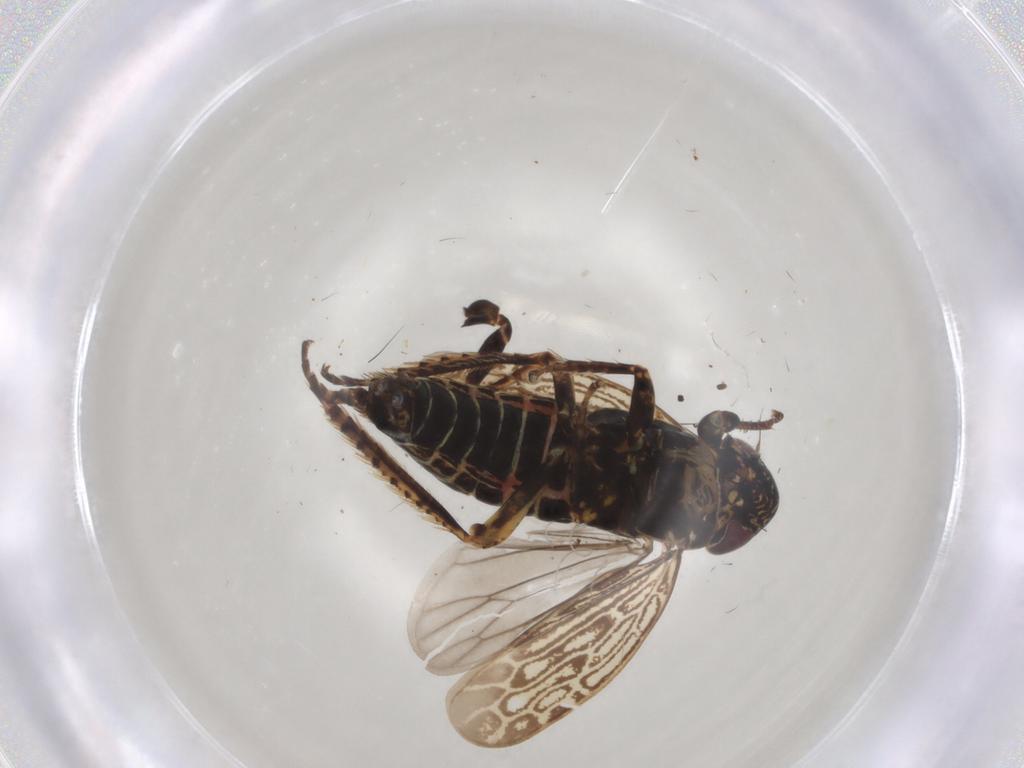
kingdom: Animalia
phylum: Arthropoda
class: Insecta
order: Hemiptera
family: Cicadellidae
